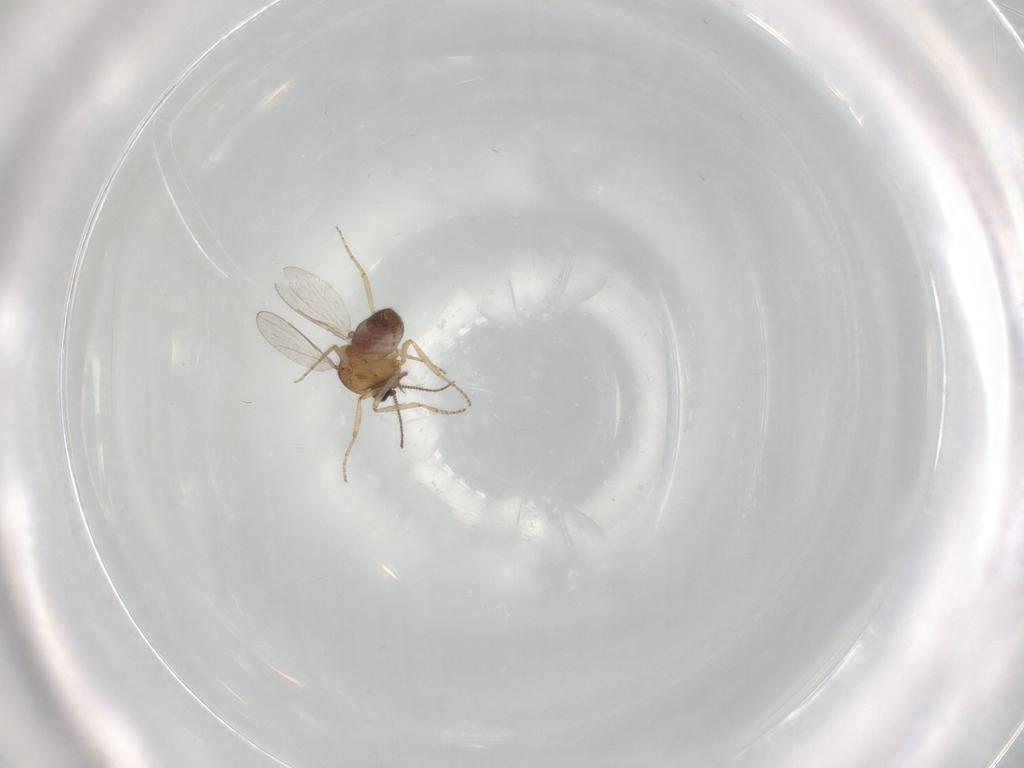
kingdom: Animalia
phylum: Arthropoda
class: Insecta
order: Diptera
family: Ceratopogonidae
